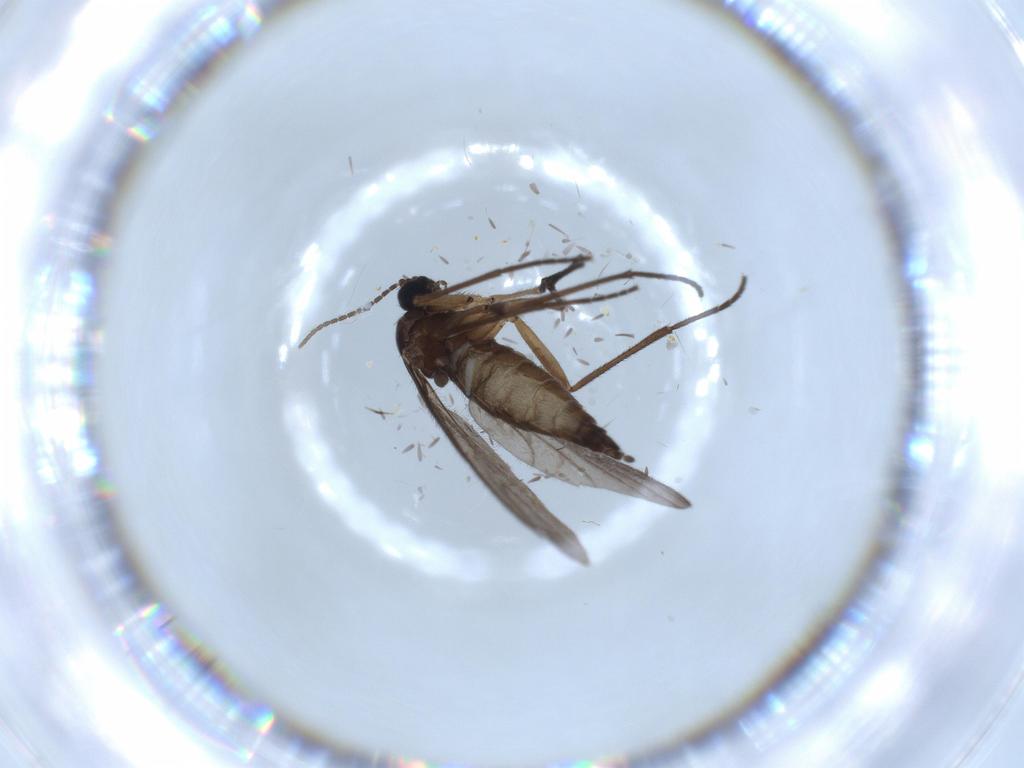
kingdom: Animalia
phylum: Arthropoda
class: Insecta
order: Diptera
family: Sciaridae
